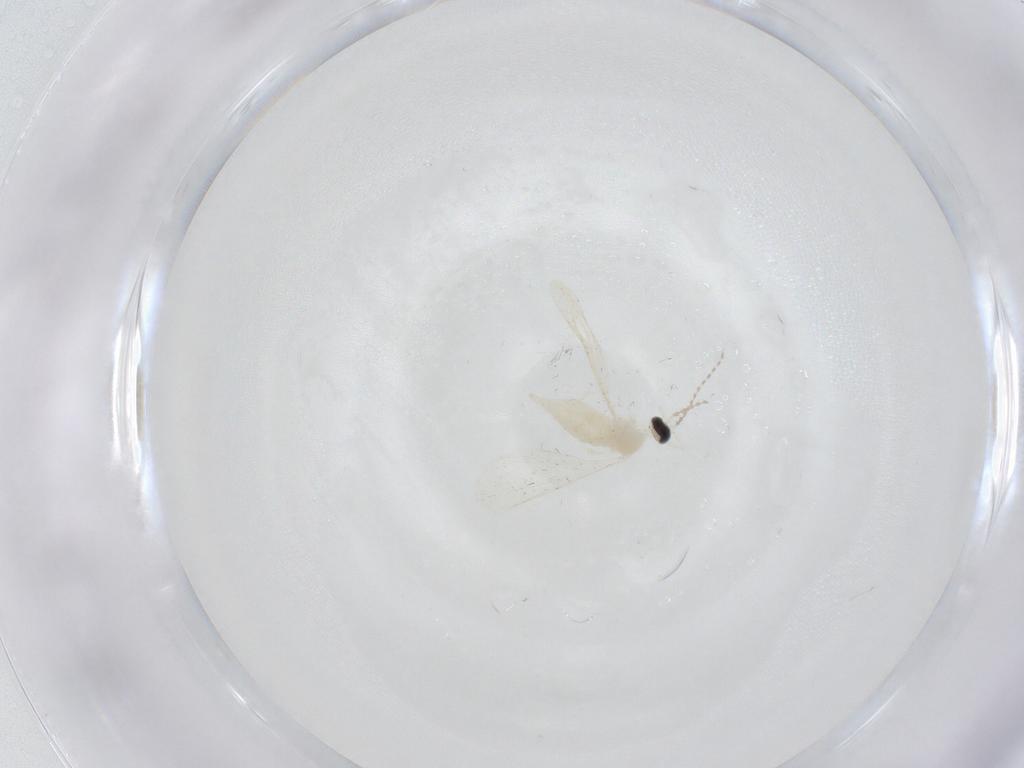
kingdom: Animalia
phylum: Arthropoda
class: Insecta
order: Diptera
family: Cecidomyiidae
